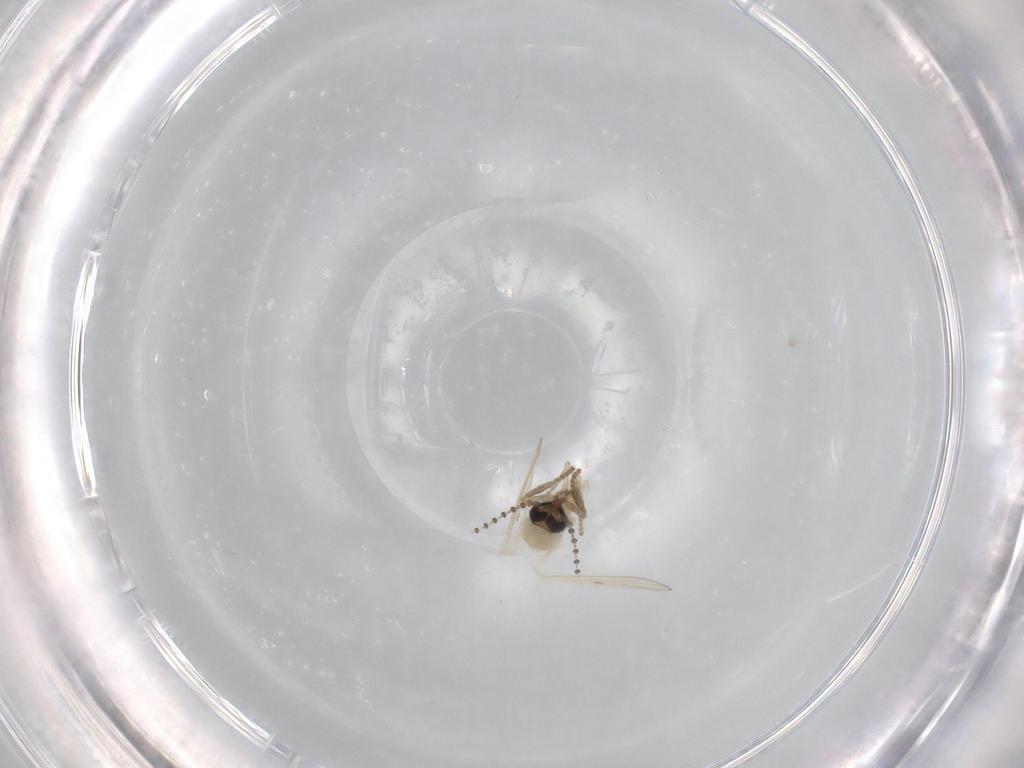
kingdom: Animalia
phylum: Arthropoda
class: Insecta
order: Diptera
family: Psychodidae
